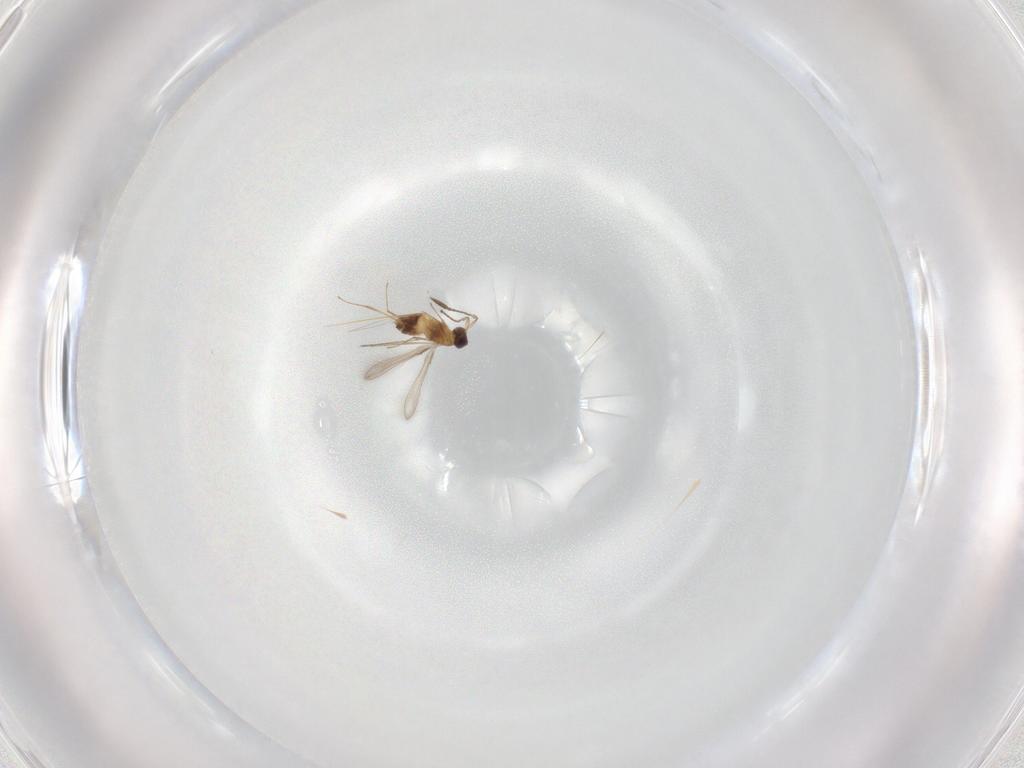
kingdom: Animalia
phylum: Arthropoda
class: Insecta
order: Hymenoptera
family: Mymaridae
